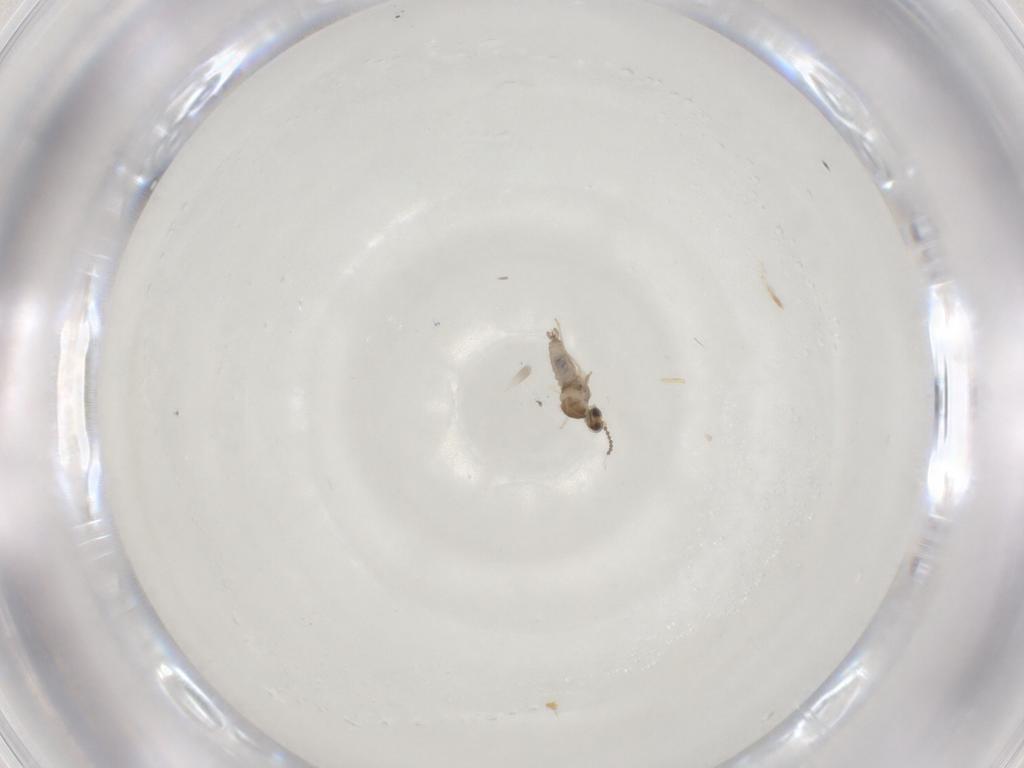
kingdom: Animalia
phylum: Arthropoda
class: Insecta
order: Diptera
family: Cecidomyiidae
